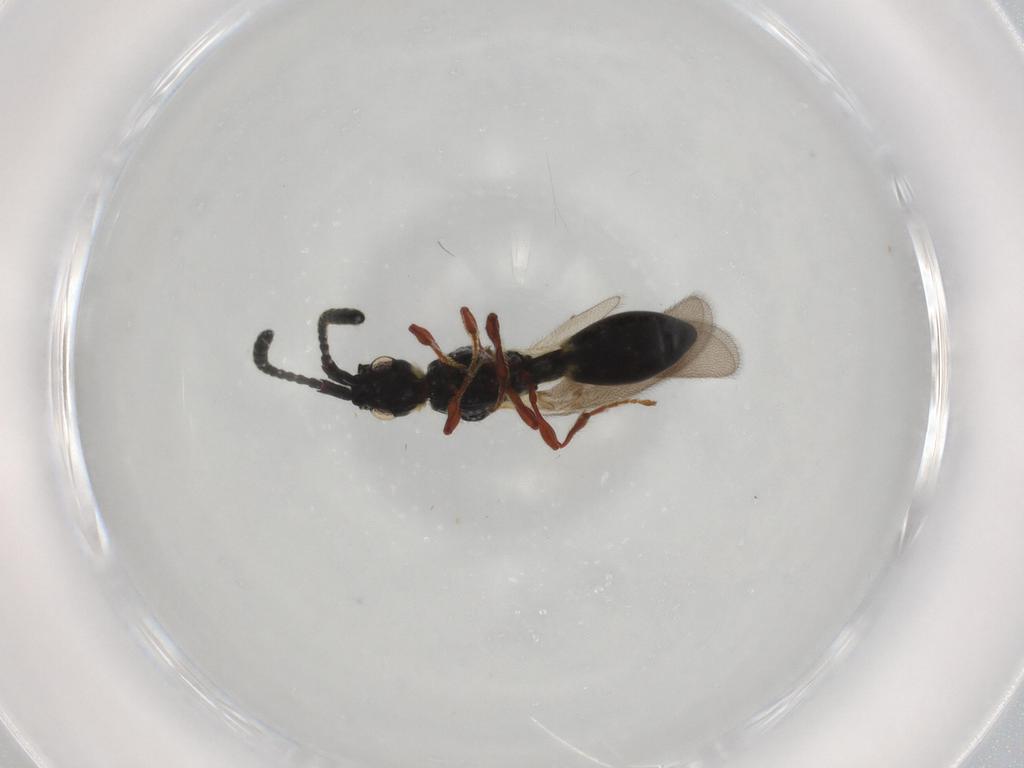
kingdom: Animalia
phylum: Arthropoda
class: Insecta
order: Hymenoptera
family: Diapriidae
